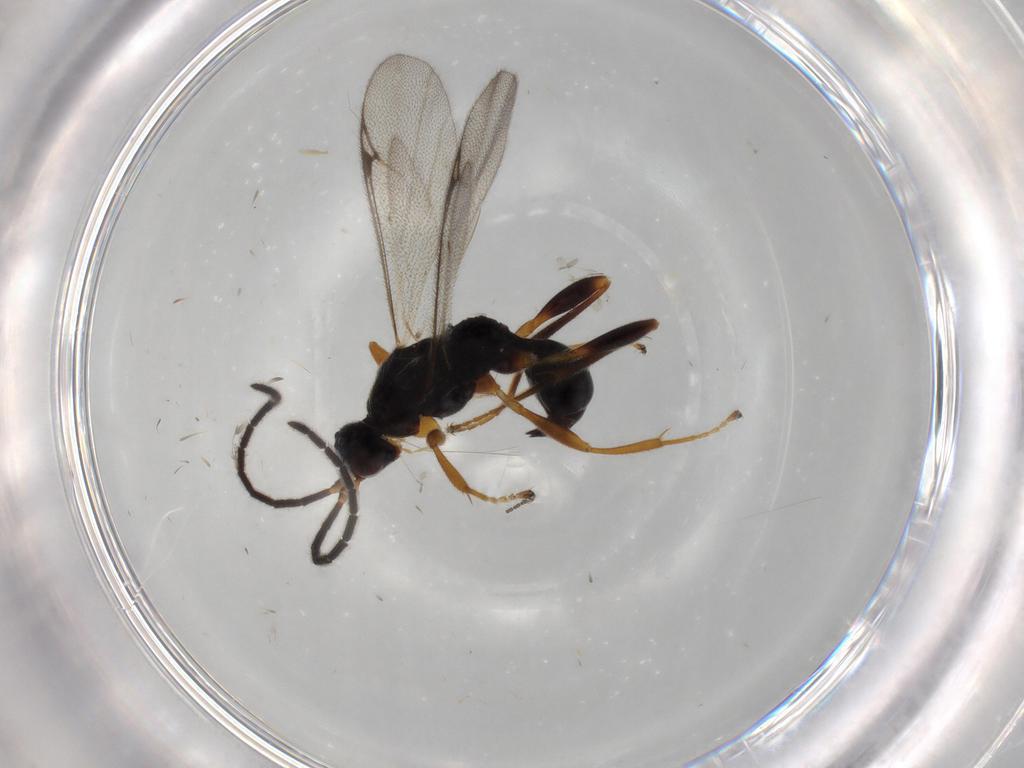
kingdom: Animalia
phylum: Arthropoda
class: Insecta
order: Hymenoptera
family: Proctotrupidae
